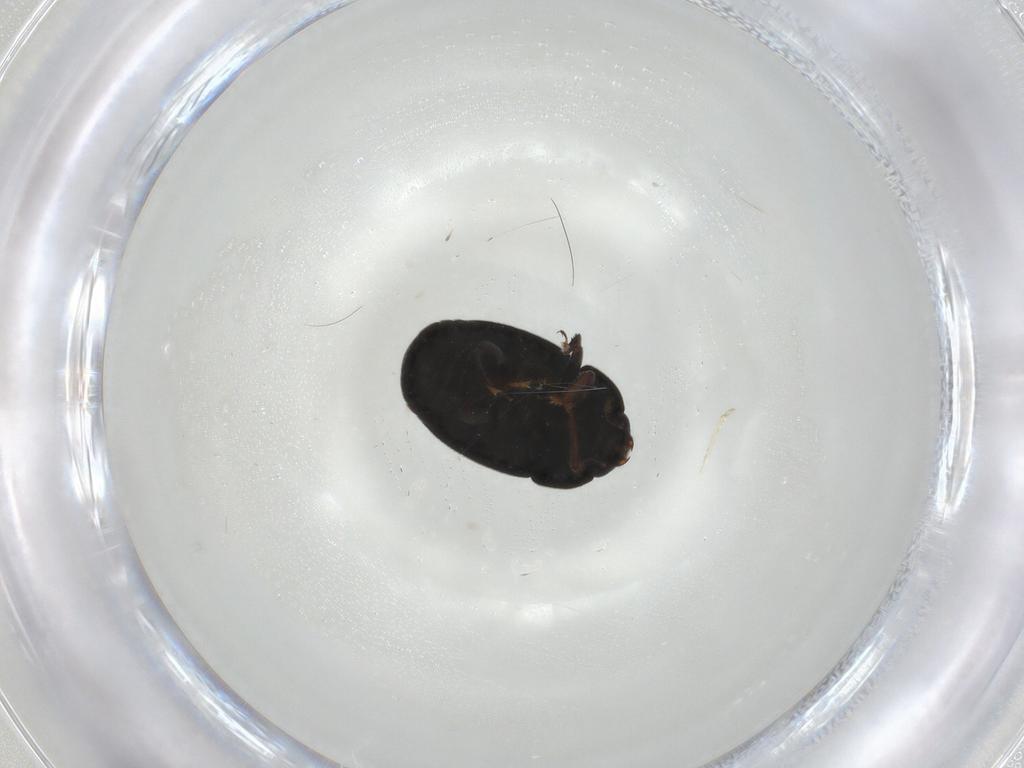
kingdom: Animalia
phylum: Arthropoda
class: Insecta
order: Coleoptera
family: Nitidulidae
